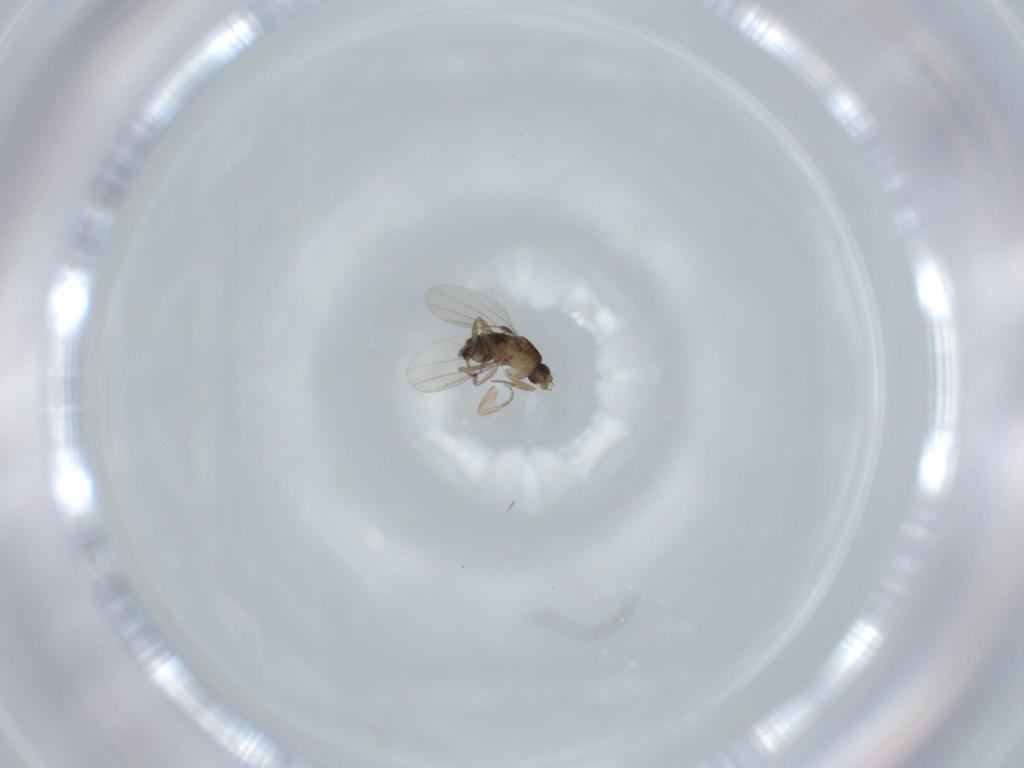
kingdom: Animalia
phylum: Arthropoda
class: Insecta
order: Diptera
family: Phoridae
